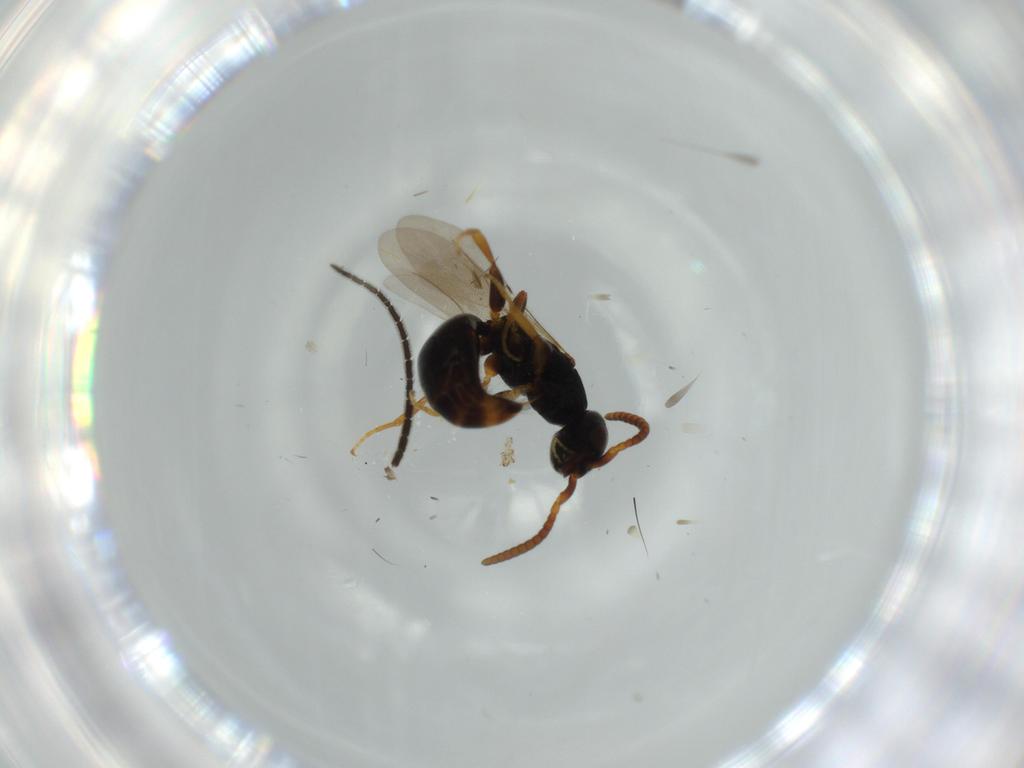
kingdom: Animalia
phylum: Arthropoda
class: Insecta
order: Hymenoptera
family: Bethylidae
